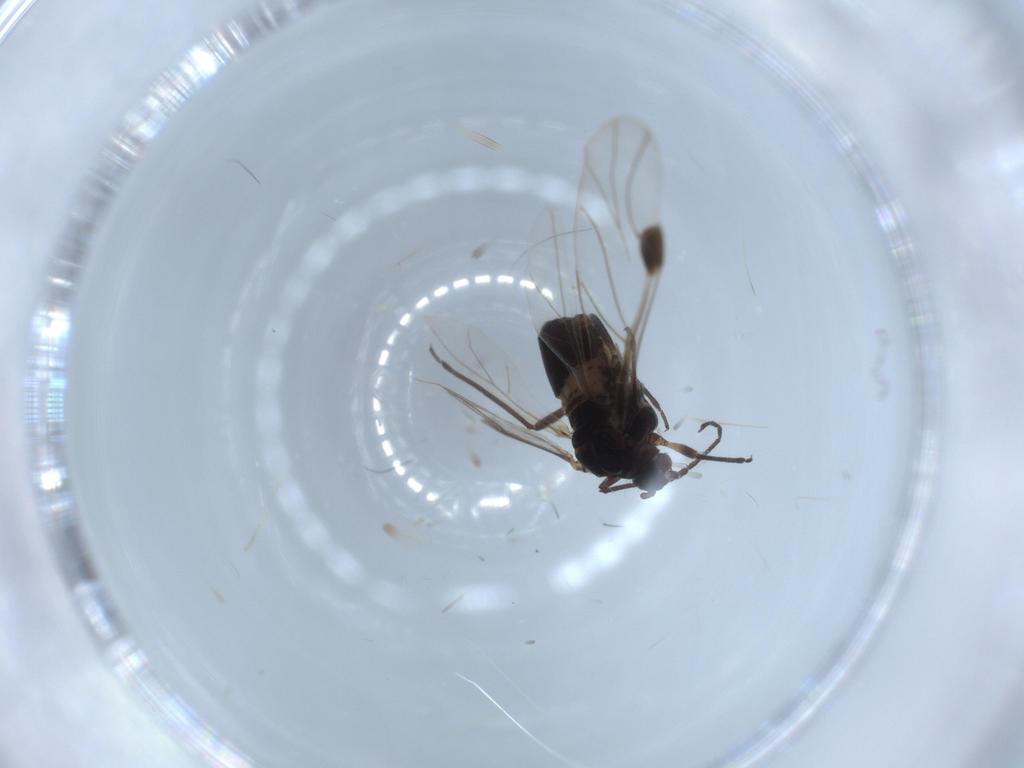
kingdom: Animalia
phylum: Arthropoda
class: Insecta
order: Hemiptera
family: Aphididae
